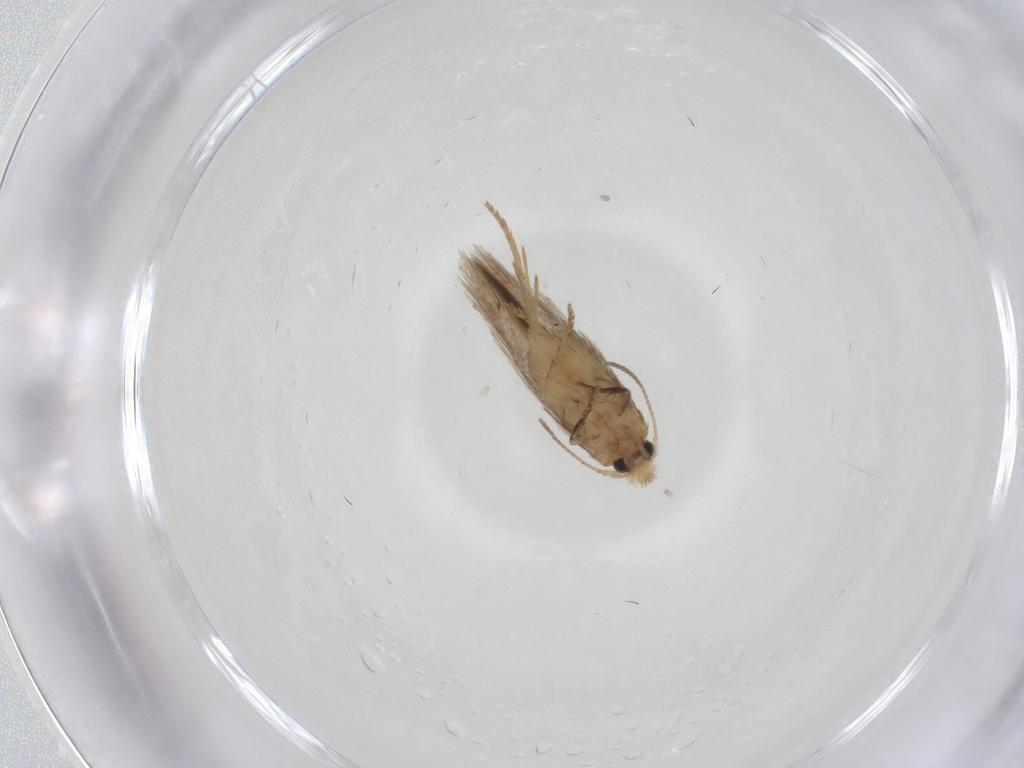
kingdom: Animalia
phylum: Arthropoda
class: Insecta
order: Lepidoptera
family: Nepticulidae
